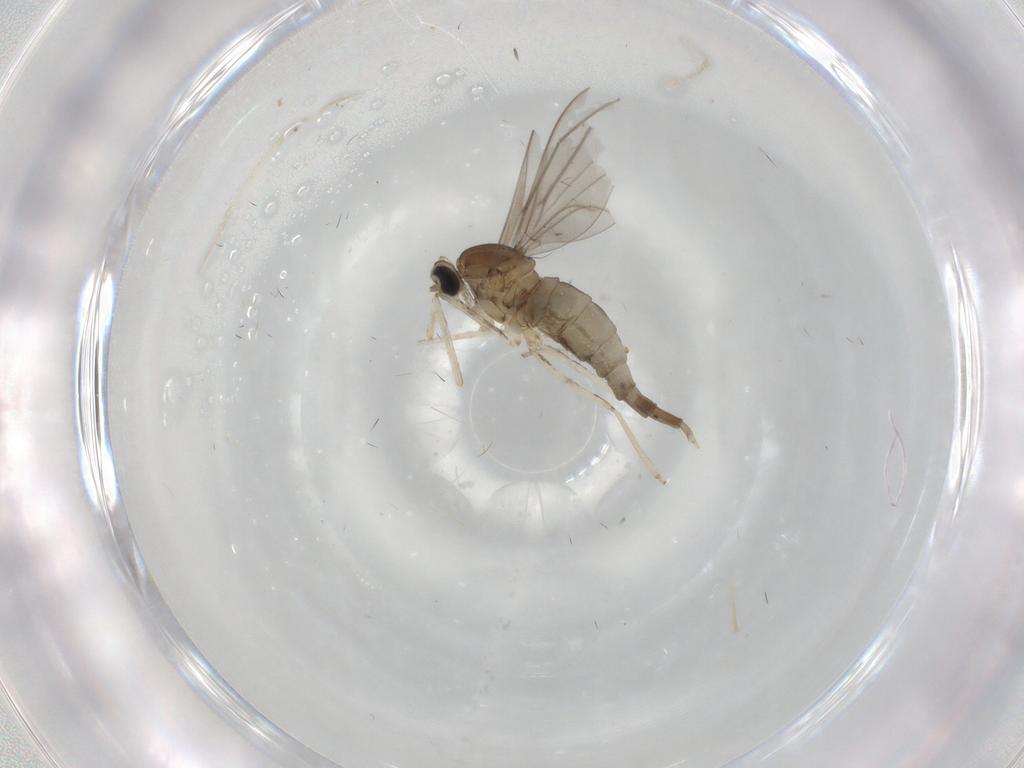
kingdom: Animalia
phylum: Arthropoda
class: Insecta
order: Diptera
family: Cecidomyiidae
